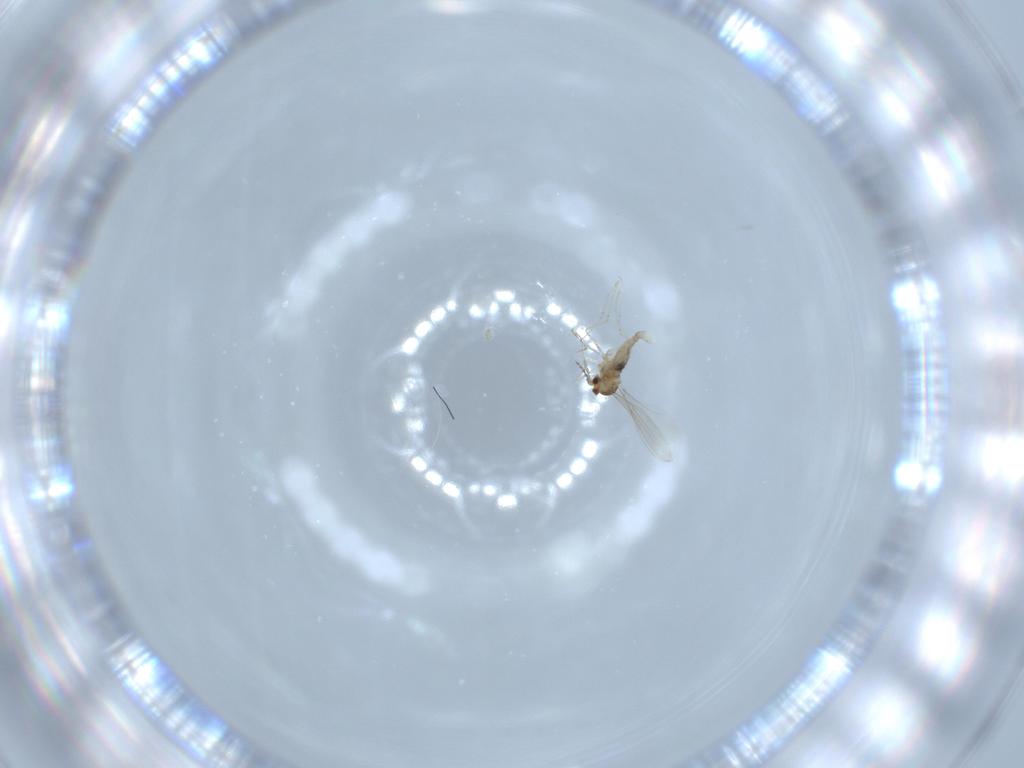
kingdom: Animalia
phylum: Arthropoda
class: Insecta
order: Diptera
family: Cecidomyiidae
